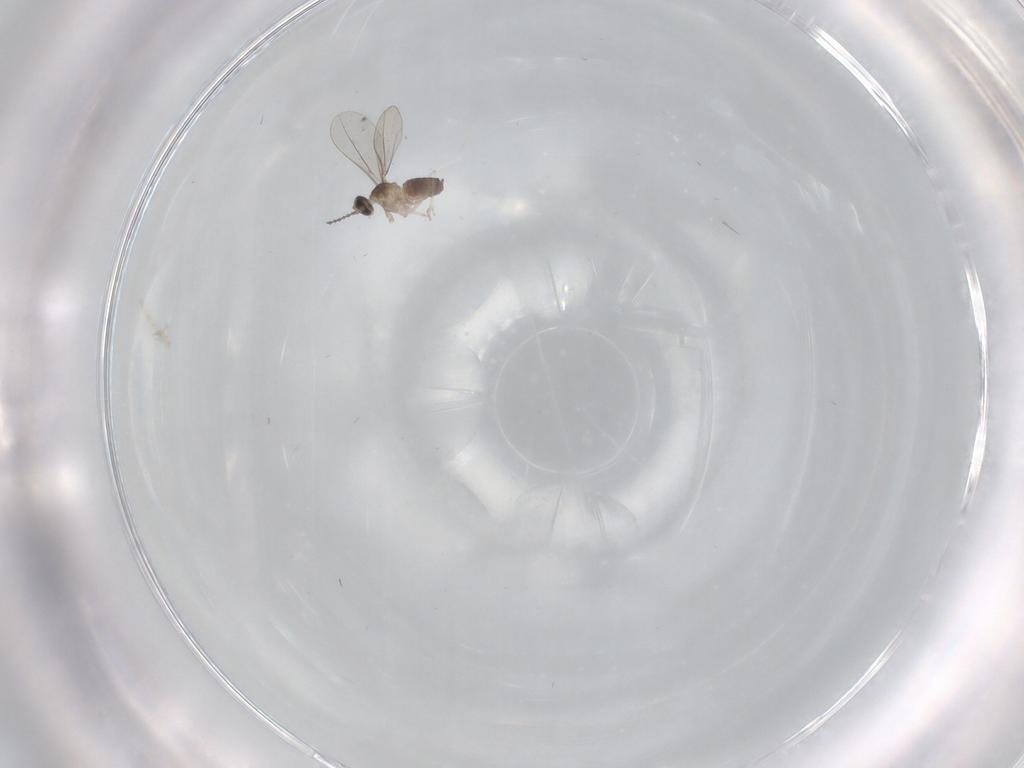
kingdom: Animalia
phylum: Arthropoda
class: Insecta
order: Diptera
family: Cecidomyiidae
